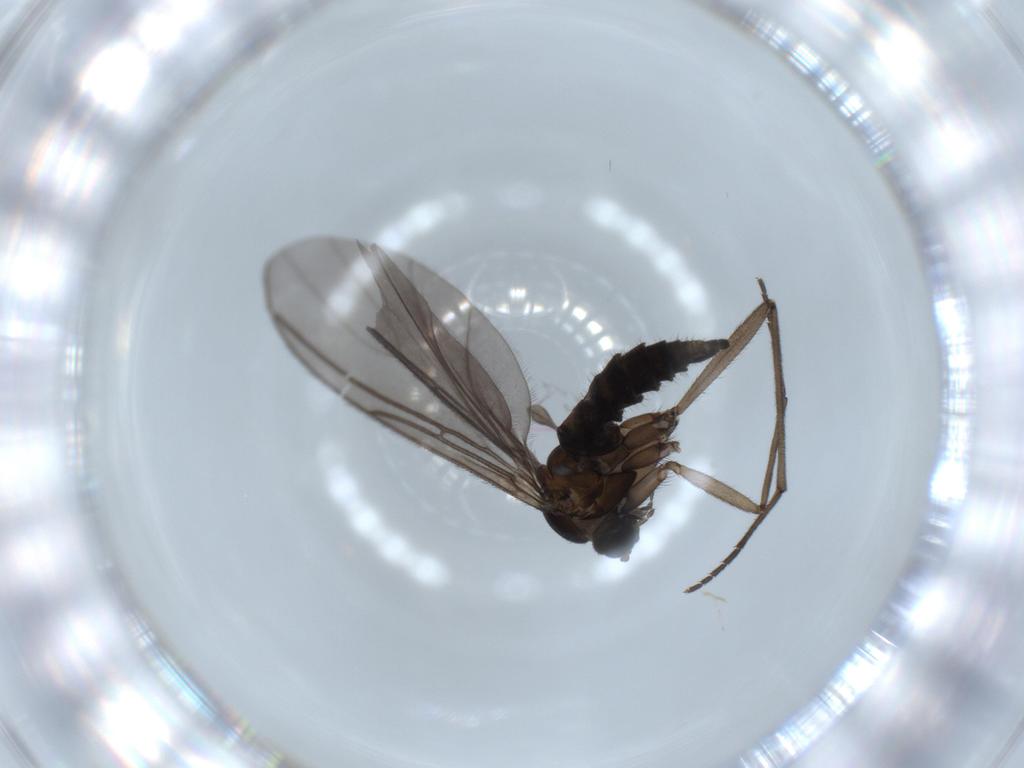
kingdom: Animalia
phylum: Arthropoda
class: Insecta
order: Diptera
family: Sciaridae
